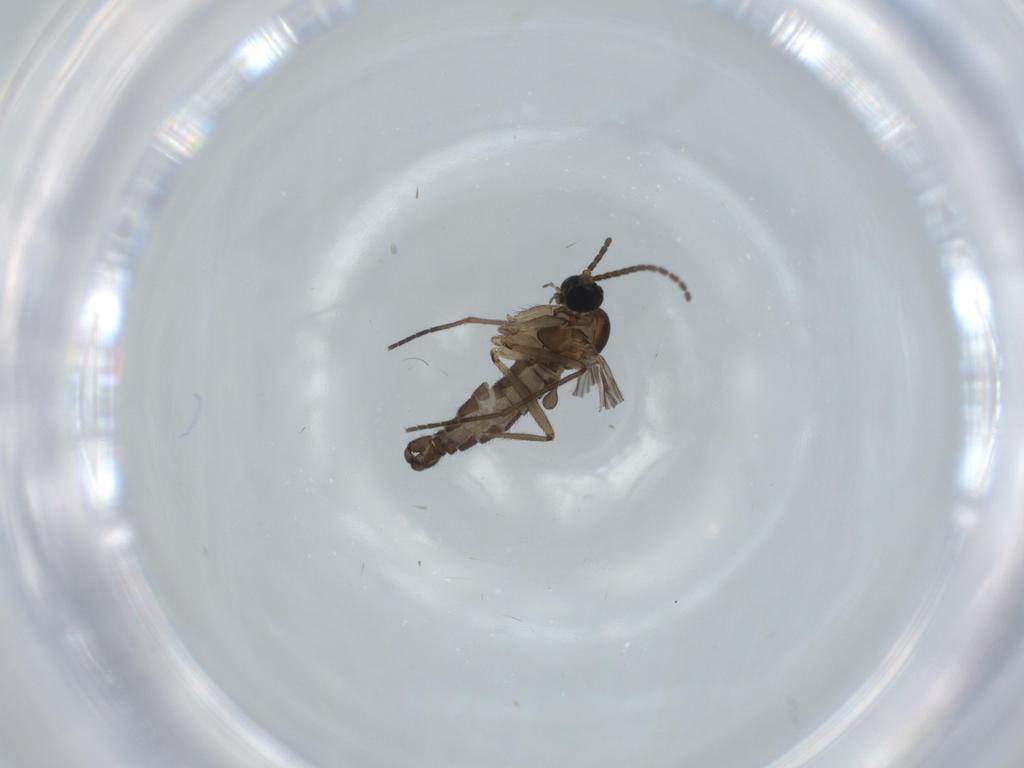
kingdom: Animalia
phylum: Arthropoda
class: Insecta
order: Diptera
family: Sciaridae
